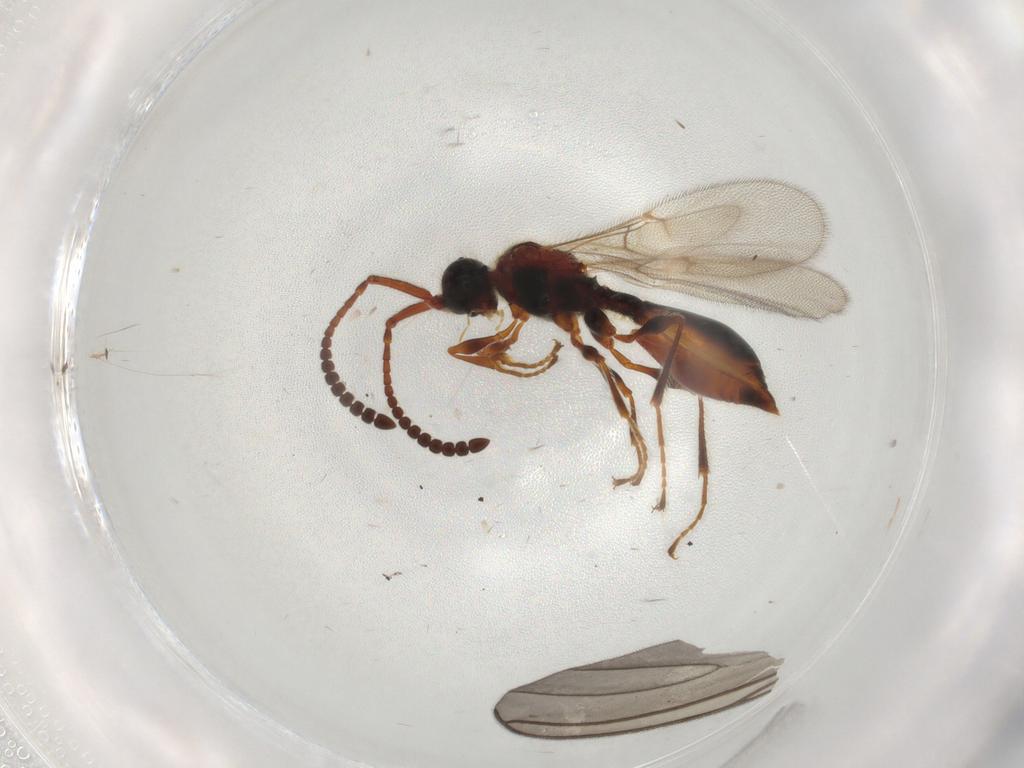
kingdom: Animalia
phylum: Arthropoda
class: Insecta
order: Hymenoptera
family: Diapriidae
